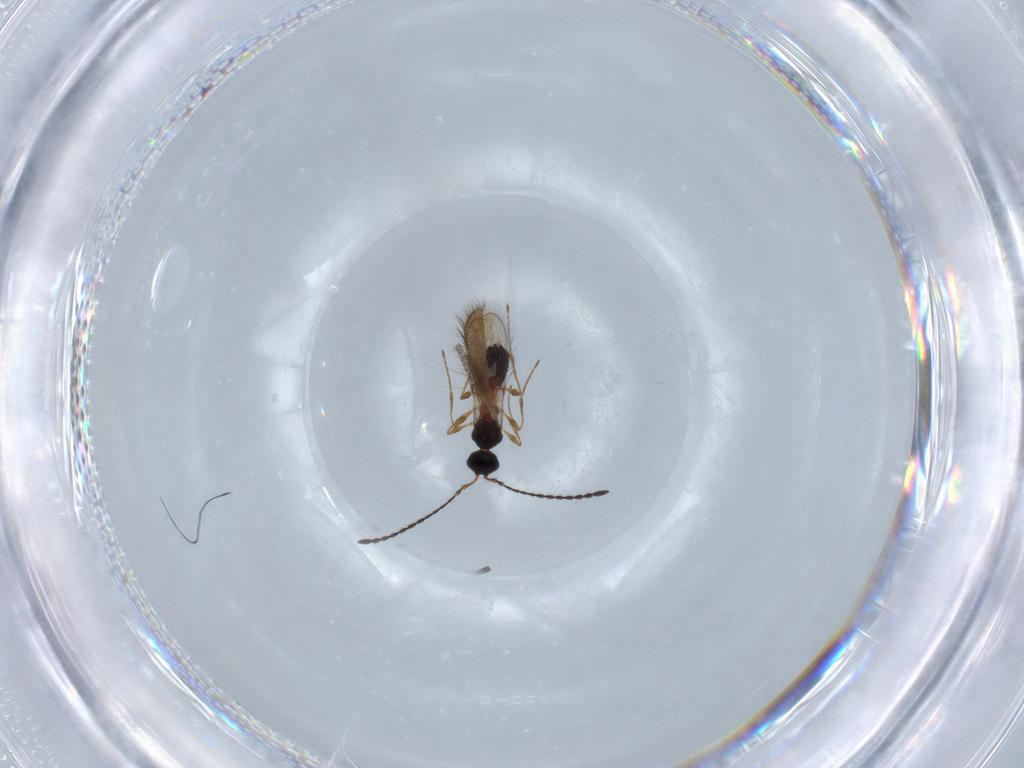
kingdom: Animalia
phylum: Arthropoda
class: Insecta
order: Hymenoptera
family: Diapriidae
